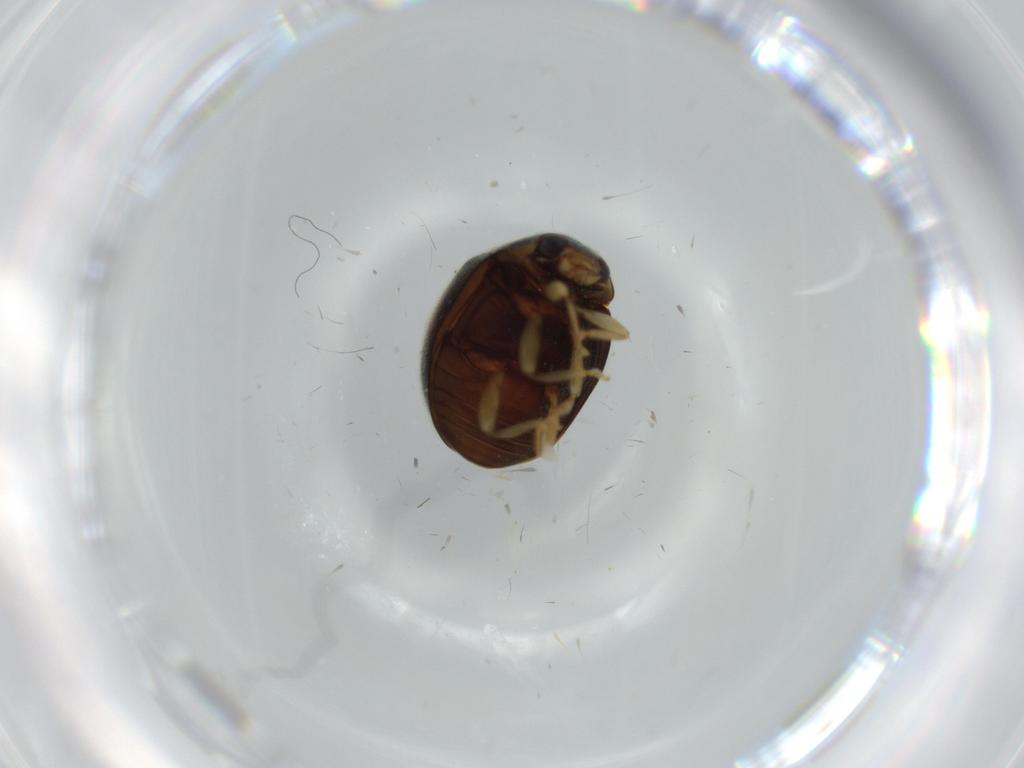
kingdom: Animalia
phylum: Arthropoda
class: Insecta
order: Coleoptera
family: Coccinellidae
